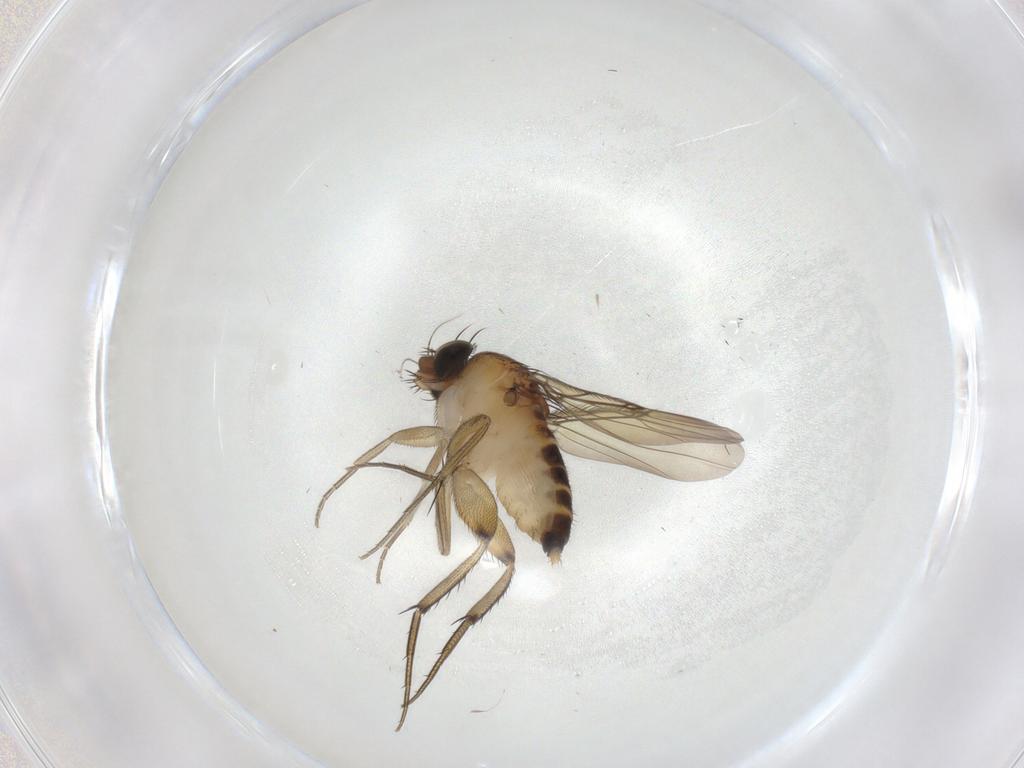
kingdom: Animalia
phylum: Arthropoda
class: Insecta
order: Diptera
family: Phoridae
